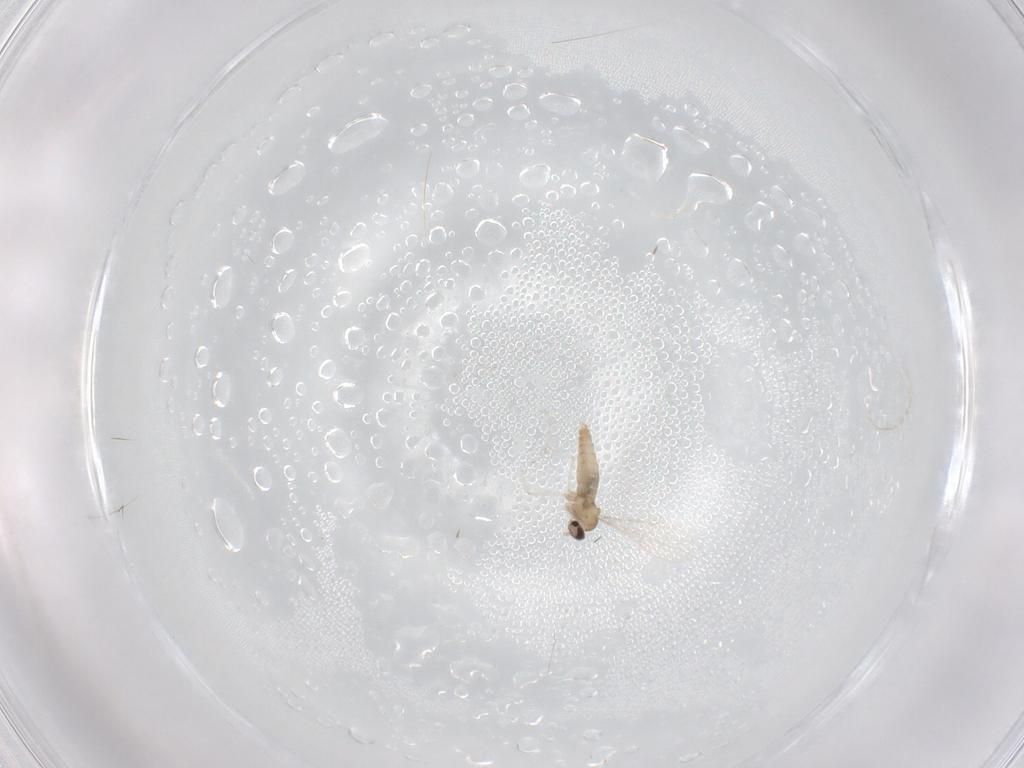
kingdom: Animalia
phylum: Arthropoda
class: Insecta
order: Diptera
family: Cecidomyiidae
